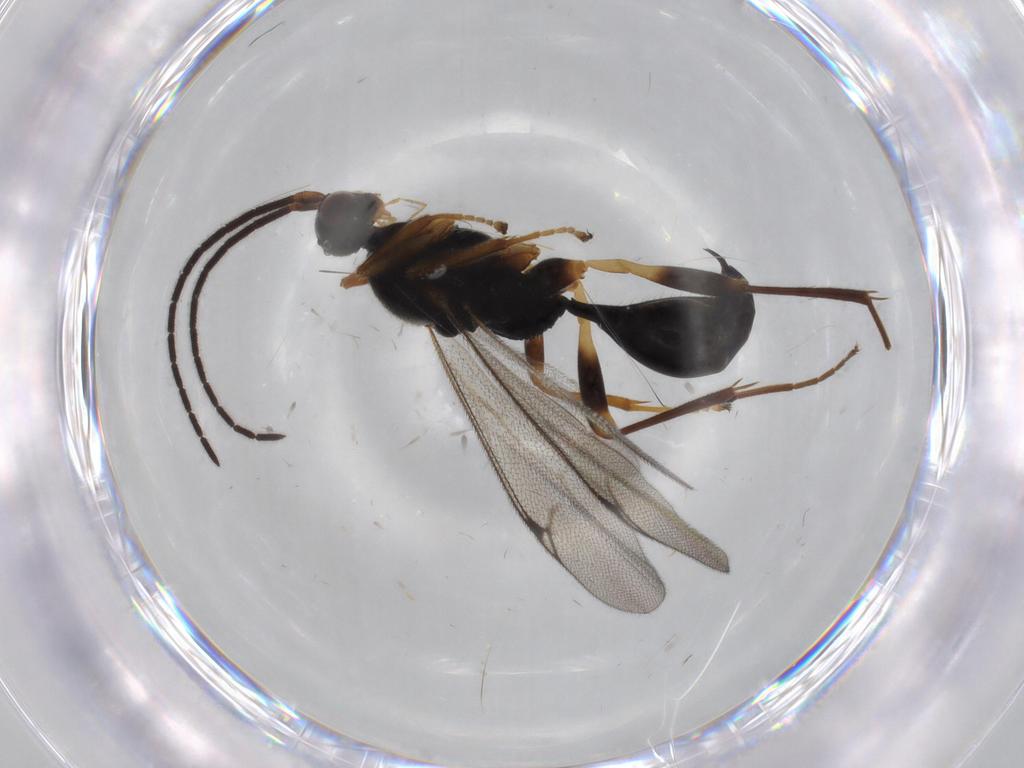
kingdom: Animalia
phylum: Arthropoda
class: Insecta
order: Hymenoptera
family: Proctotrupidae
